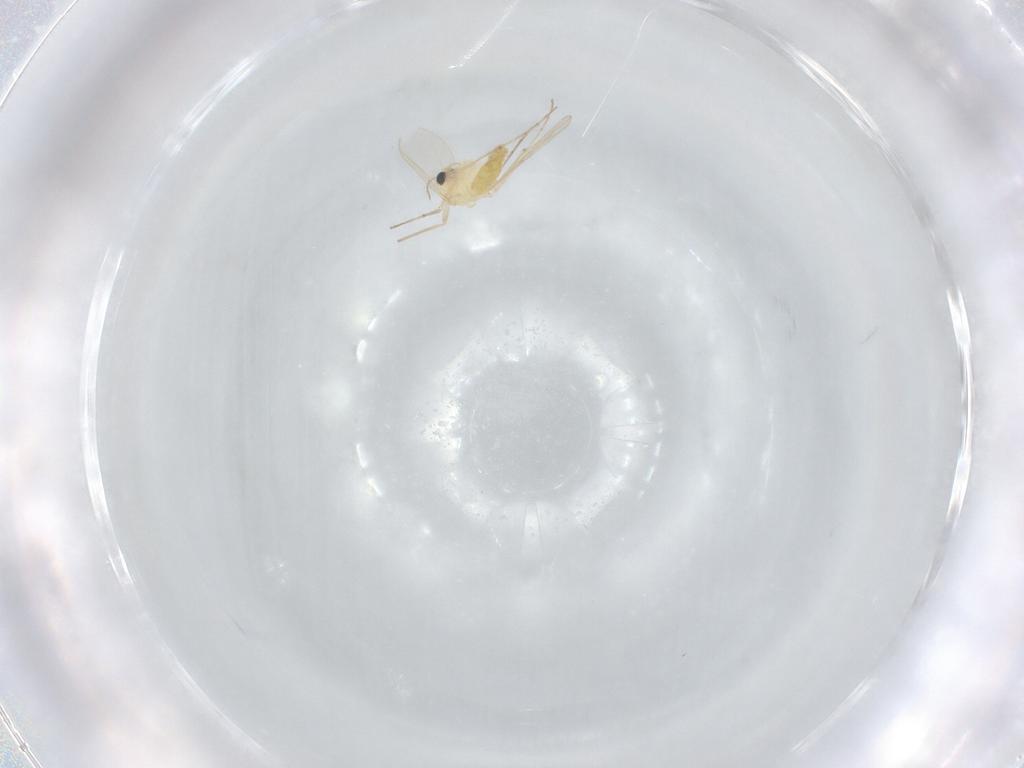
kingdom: Animalia
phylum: Arthropoda
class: Insecta
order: Diptera
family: Chironomidae
